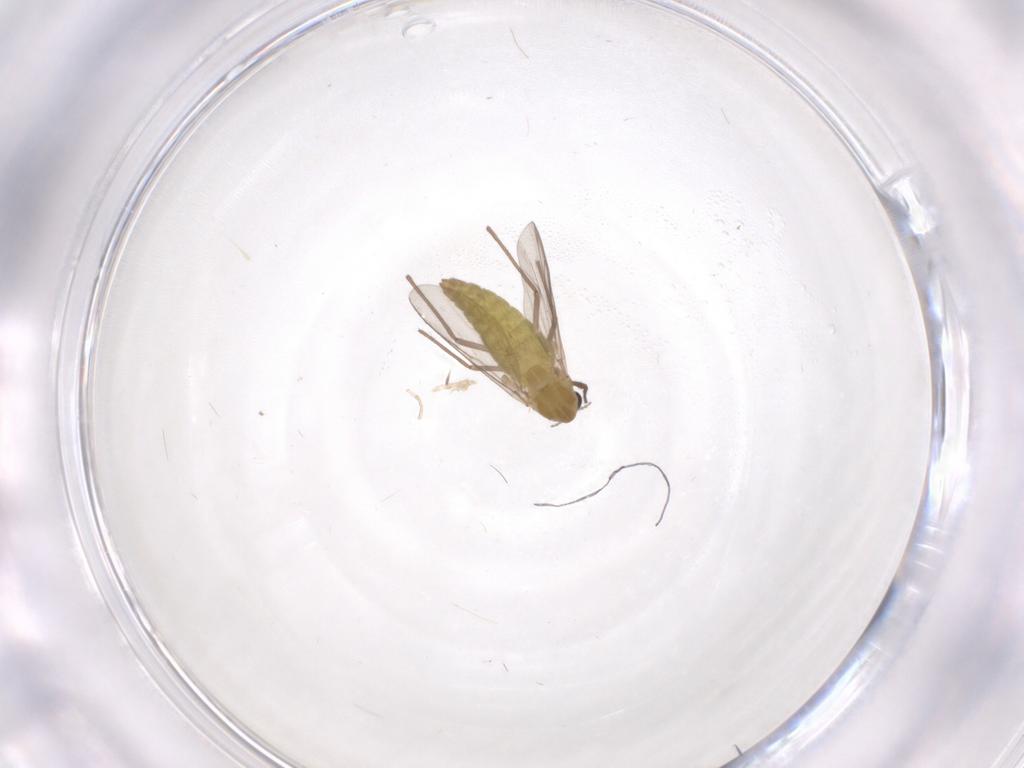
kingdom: Animalia
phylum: Arthropoda
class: Insecta
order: Diptera
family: Chironomidae
